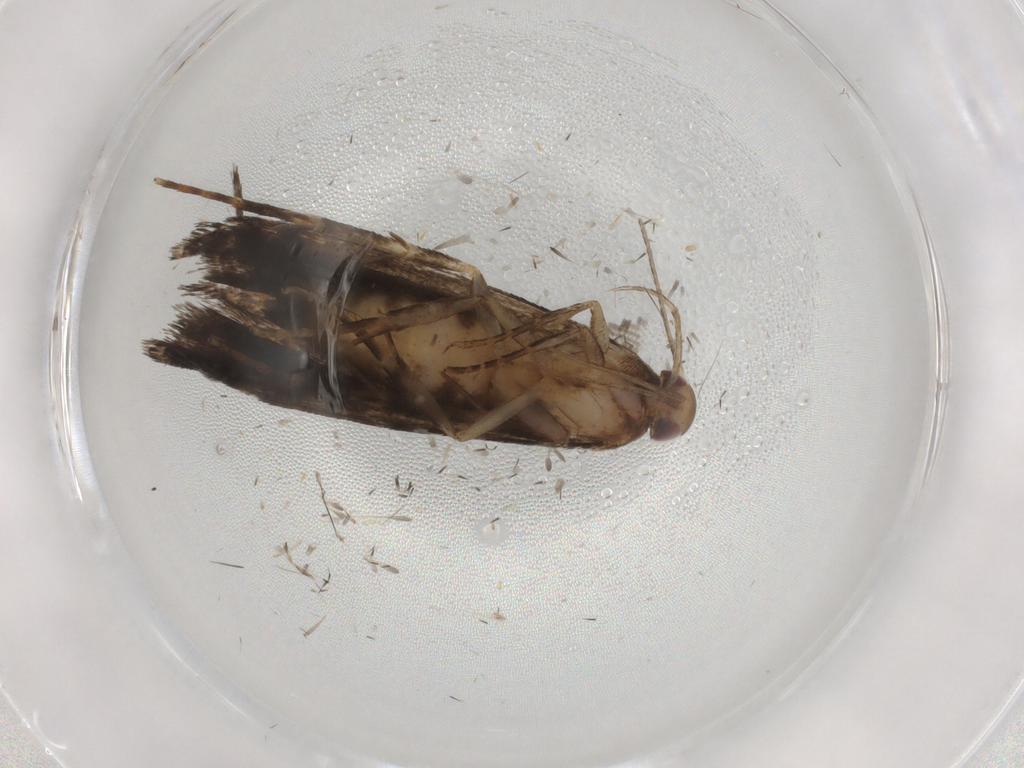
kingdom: Animalia
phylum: Arthropoda
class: Insecta
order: Lepidoptera
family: Gelechiidae
